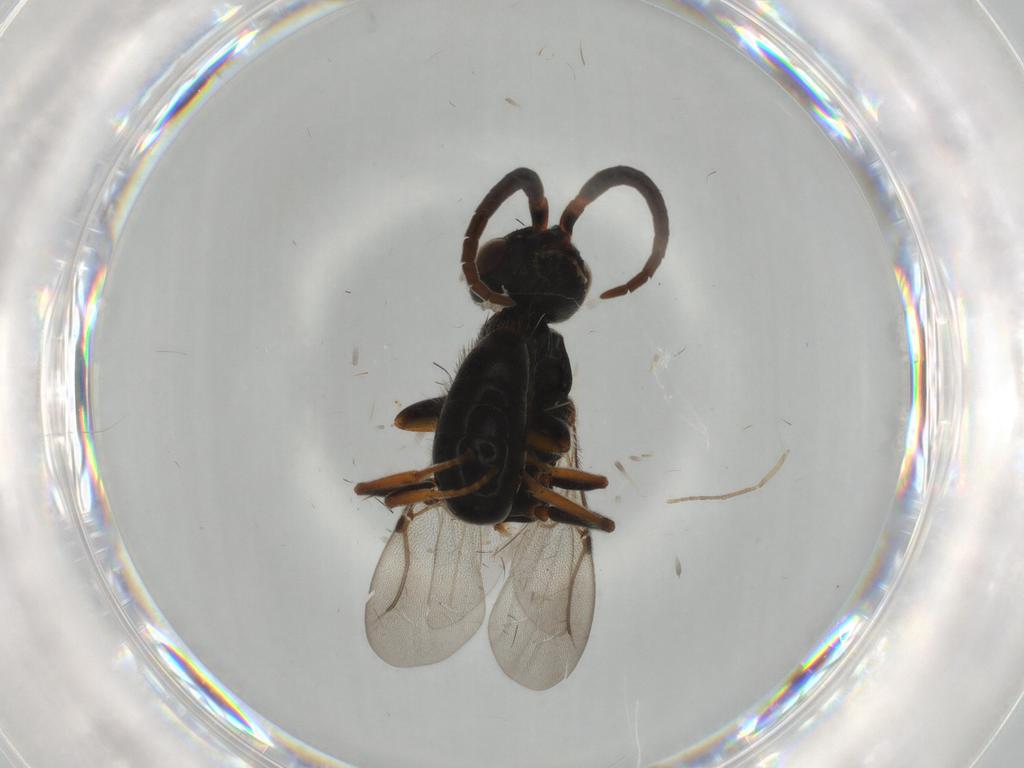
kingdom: Animalia
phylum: Arthropoda
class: Insecta
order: Hymenoptera
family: Bethylidae
